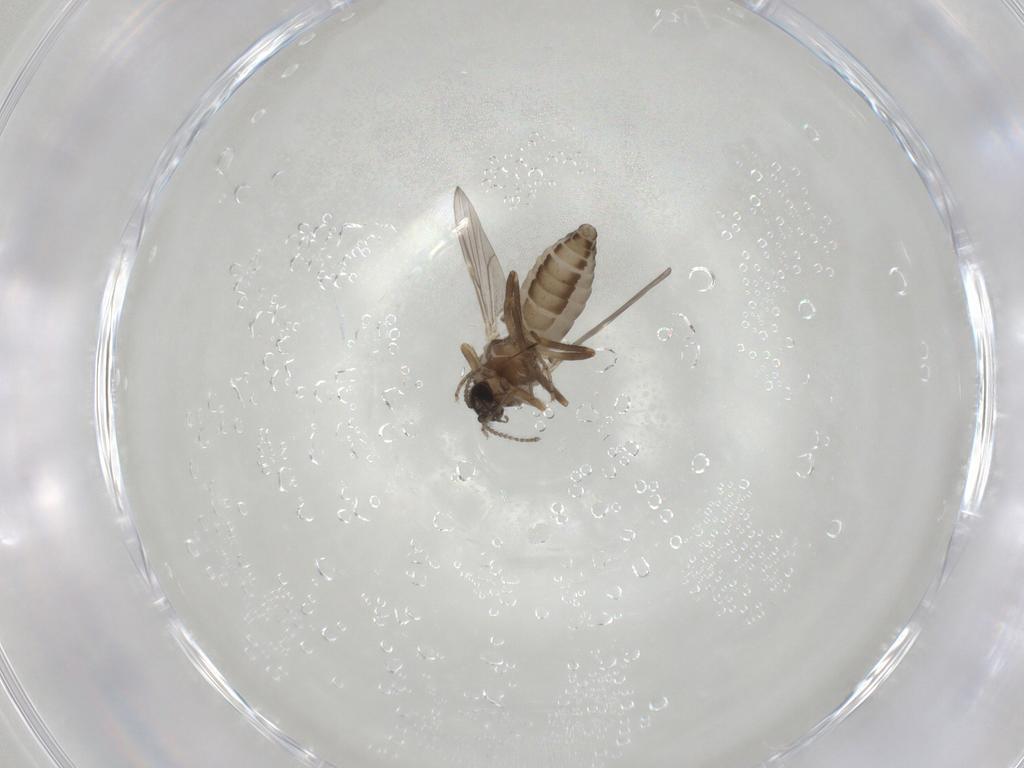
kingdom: Animalia
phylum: Arthropoda
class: Insecta
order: Diptera
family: Ceratopogonidae
